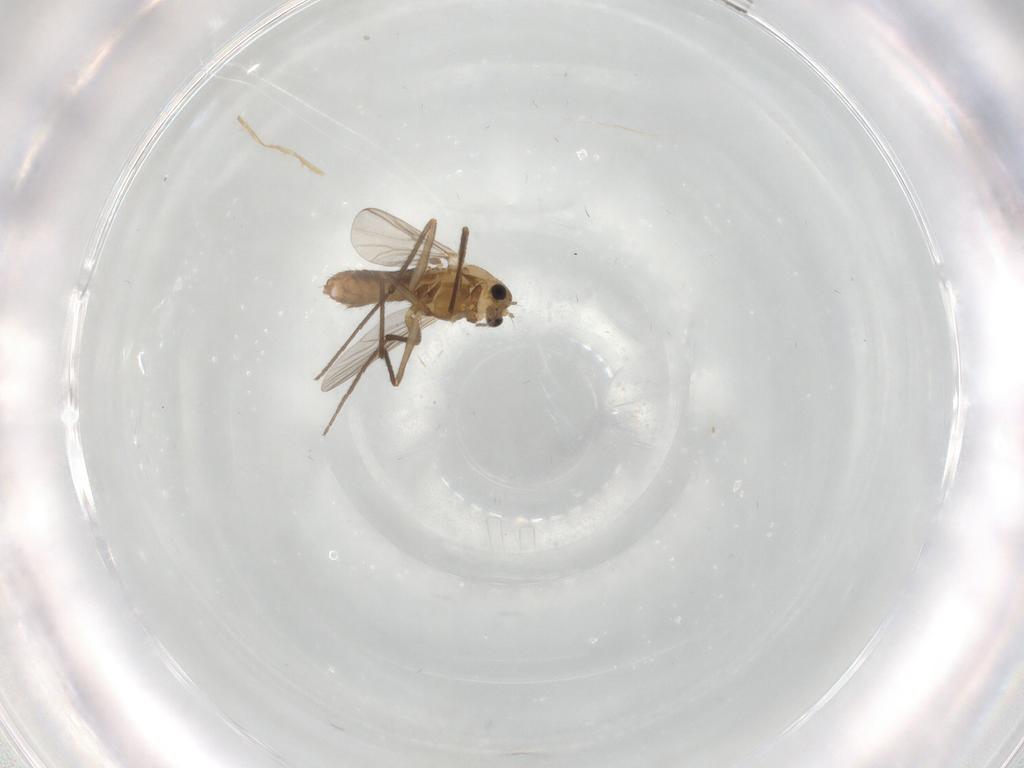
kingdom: Animalia
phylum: Arthropoda
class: Insecta
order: Diptera
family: Chironomidae
